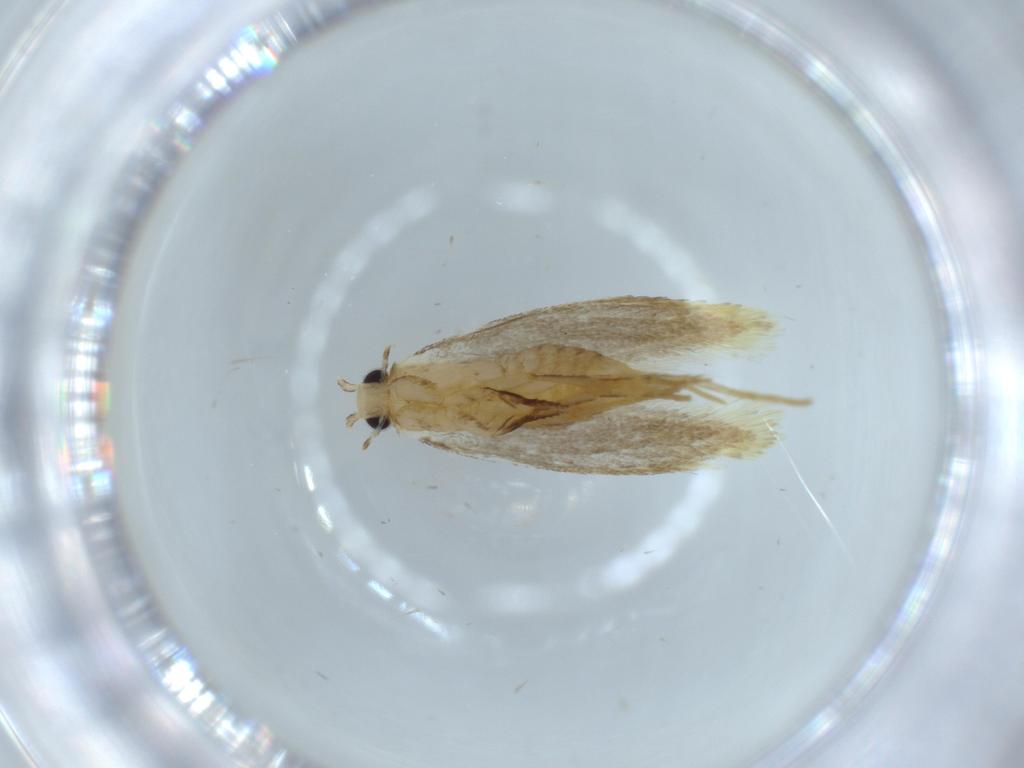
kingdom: Animalia
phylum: Arthropoda
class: Insecta
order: Lepidoptera
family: Tineidae
